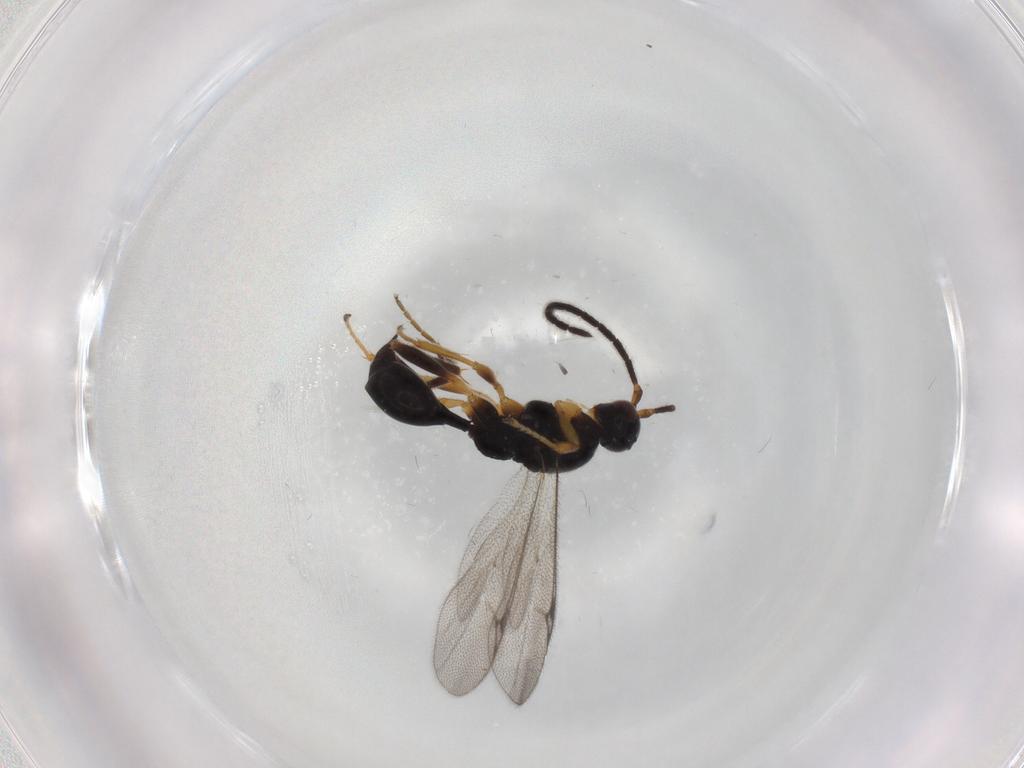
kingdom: Animalia
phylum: Arthropoda
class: Insecta
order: Hymenoptera
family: Proctotrupidae
